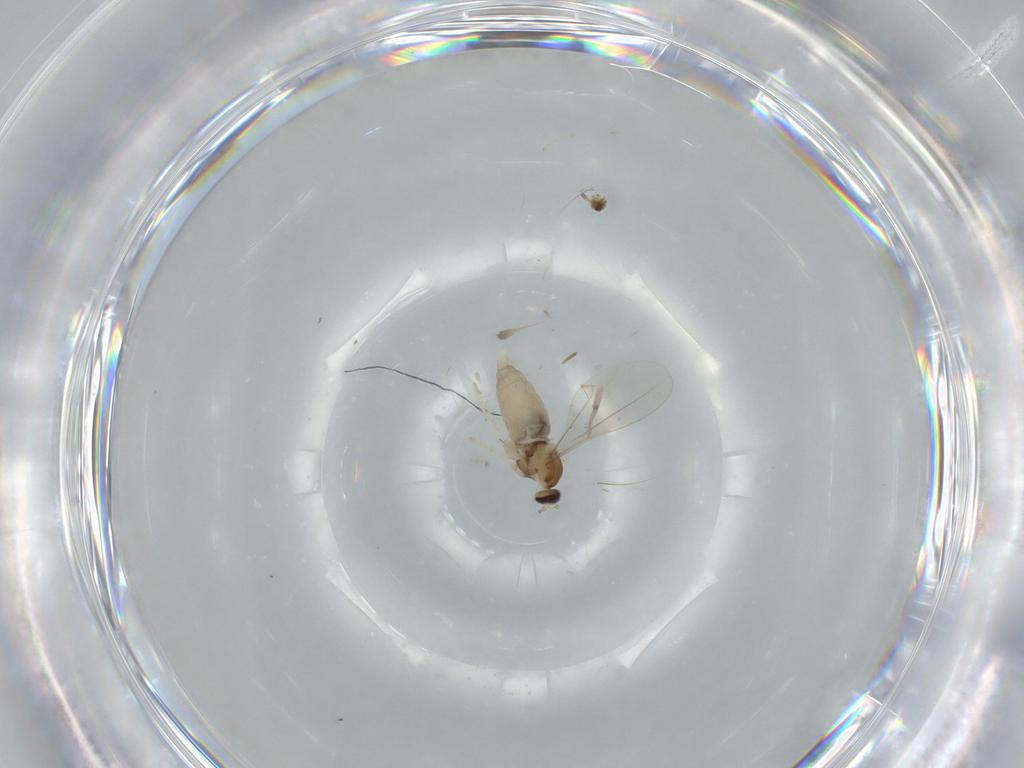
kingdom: Animalia
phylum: Arthropoda
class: Insecta
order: Diptera
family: Cecidomyiidae
